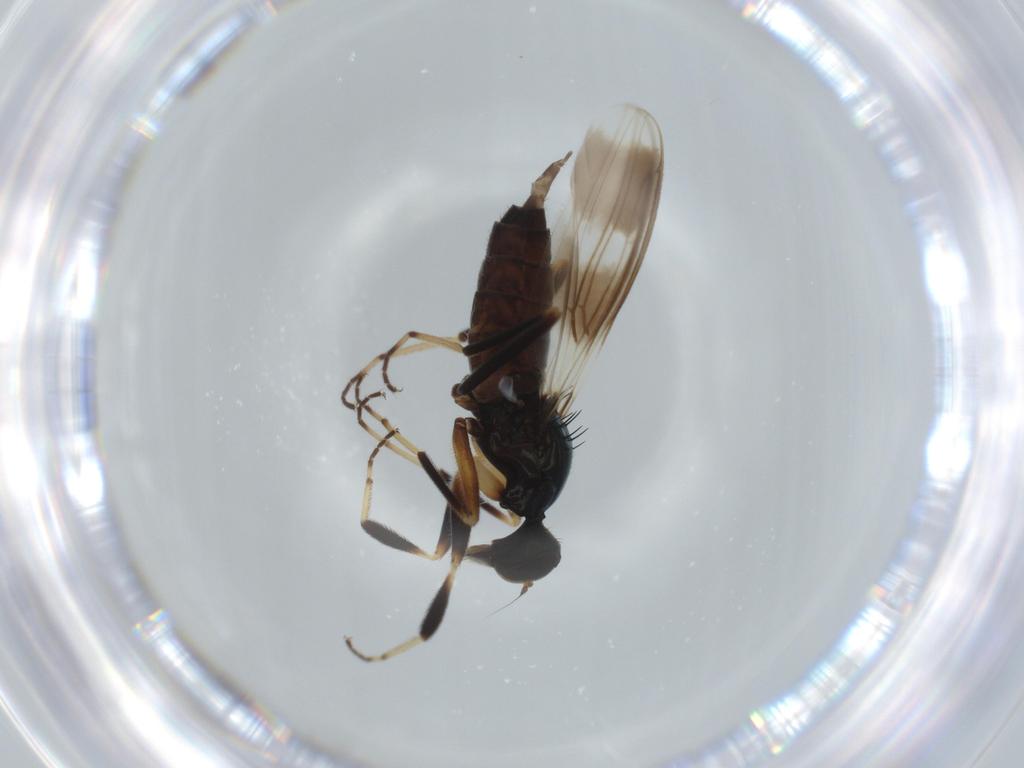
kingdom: Animalia
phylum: Arthropoda
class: Insecta
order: Diptera
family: Hybotidae
